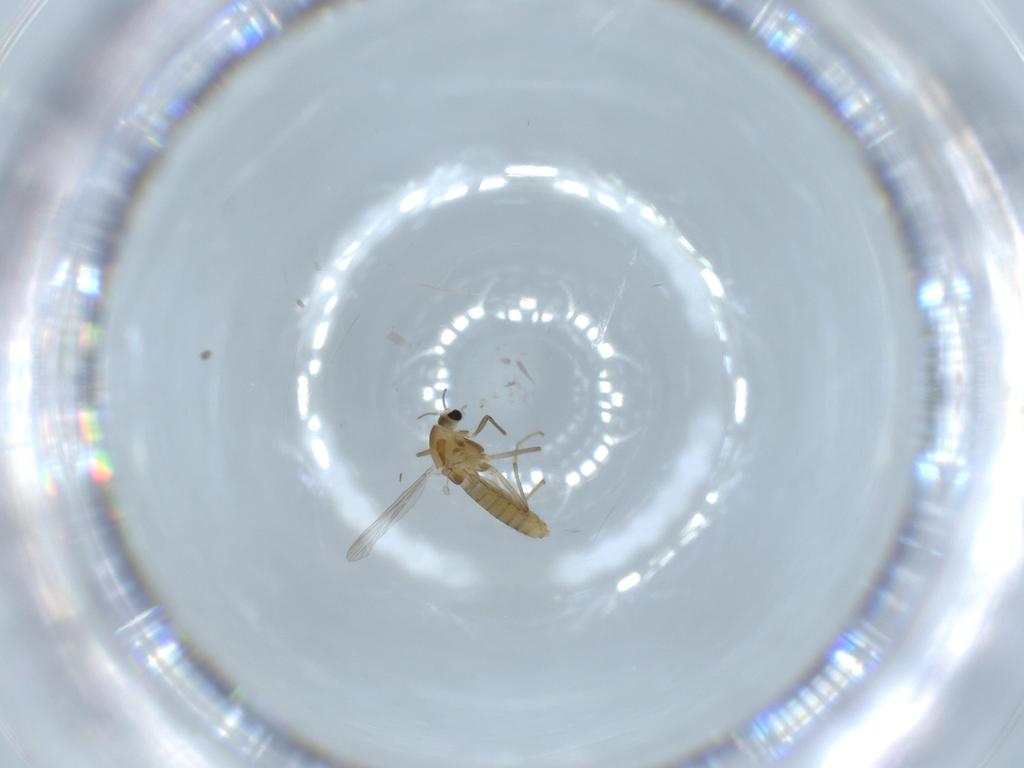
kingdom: Animalia
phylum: Arthropoda
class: Insecta
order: Diptera
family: Chironomidae
